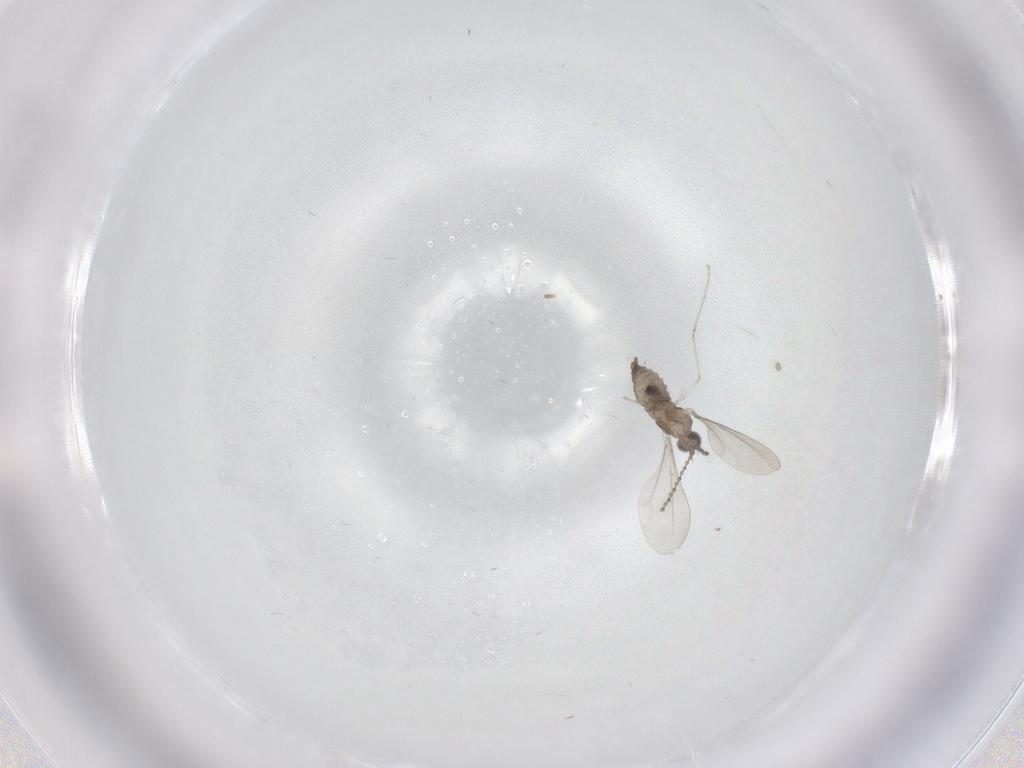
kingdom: Animalia
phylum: Arthropoda
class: Insecta
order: Diptera
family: Cecidomyiidae
